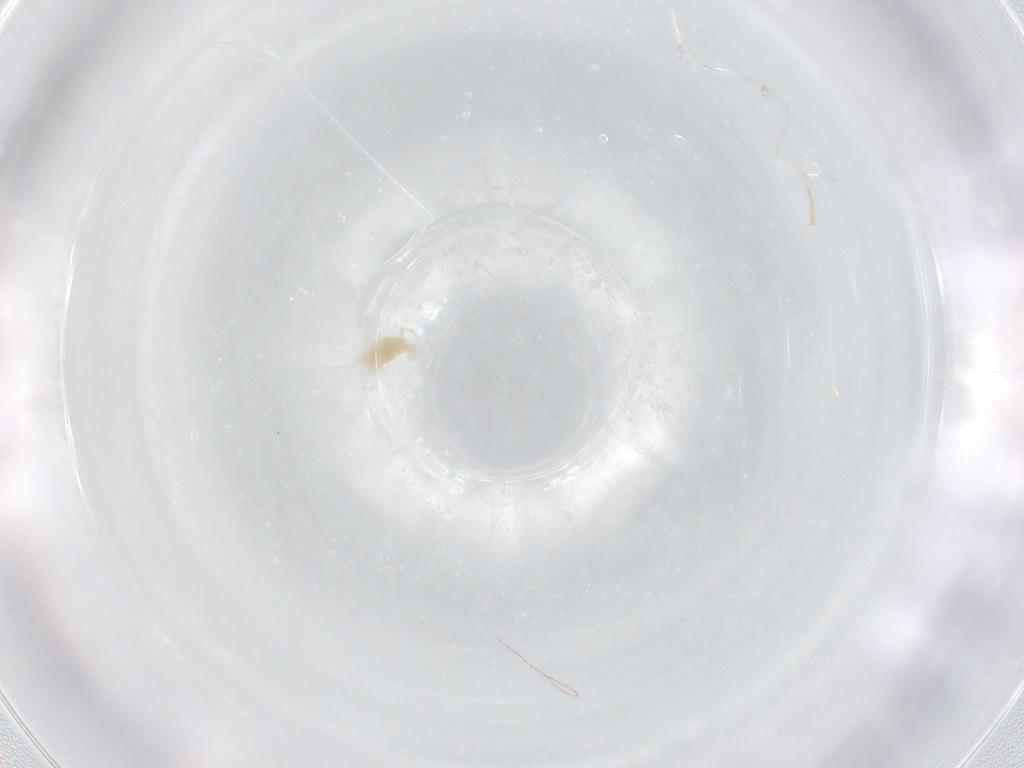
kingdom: Animalia
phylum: Arthropoda
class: Arachnida
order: Trombidiformes
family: Eupodidae
